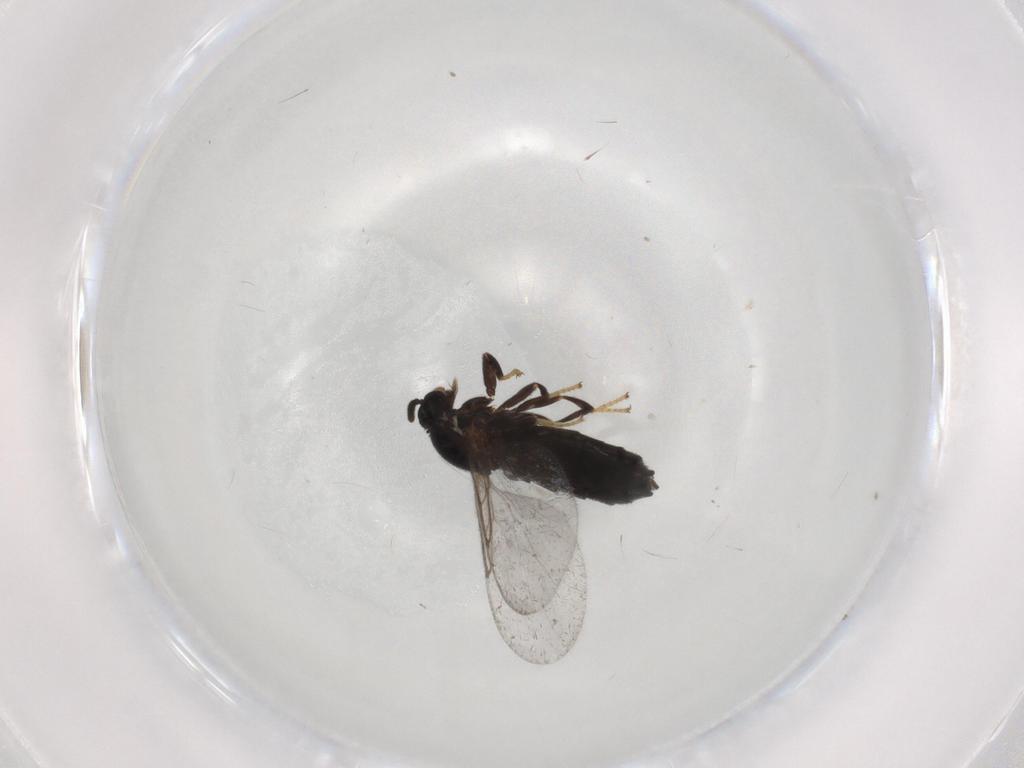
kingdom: Animalia
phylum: Arthropoda
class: Insecta
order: Diptera
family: Scatopsidae
